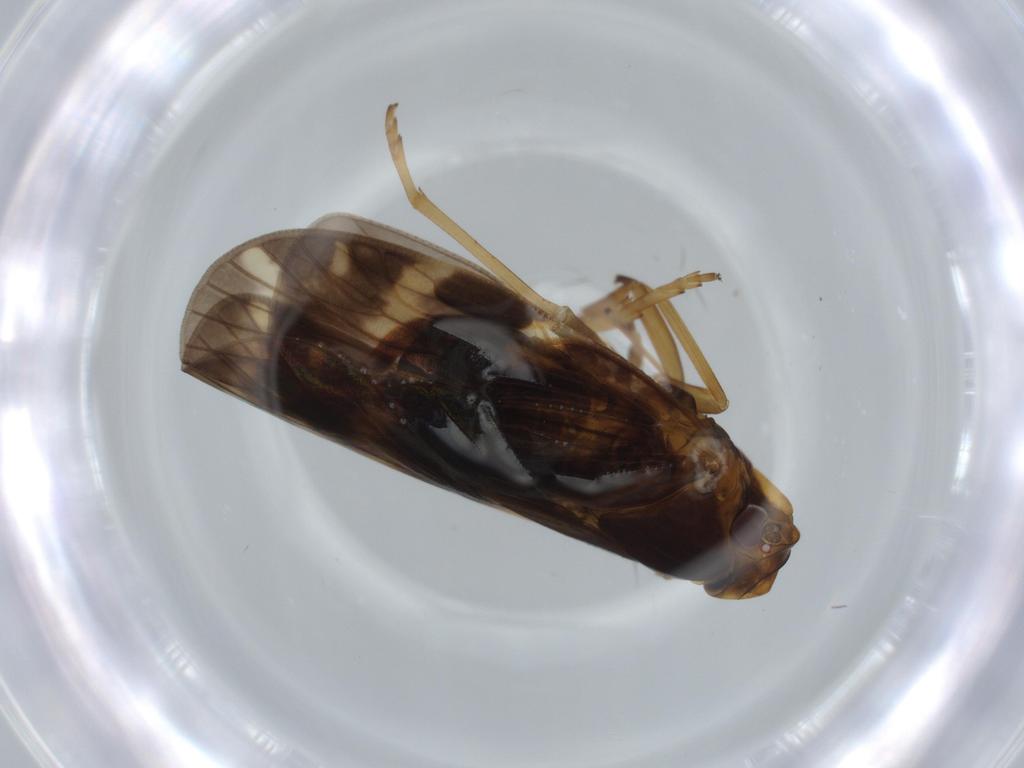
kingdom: Animalia
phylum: Arthropoda
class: Insecta
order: Hemiptera
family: Cixiidae
